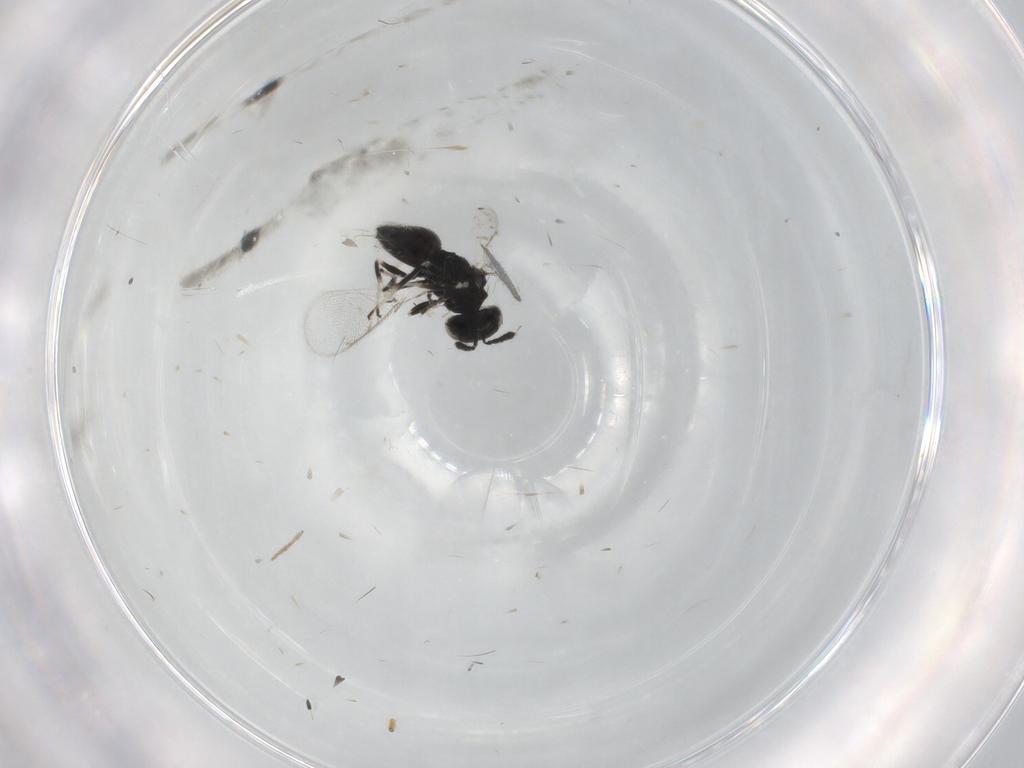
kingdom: Animalia
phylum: Arthropoda
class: Insecta
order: Hymenoptera
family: Eulophidae
